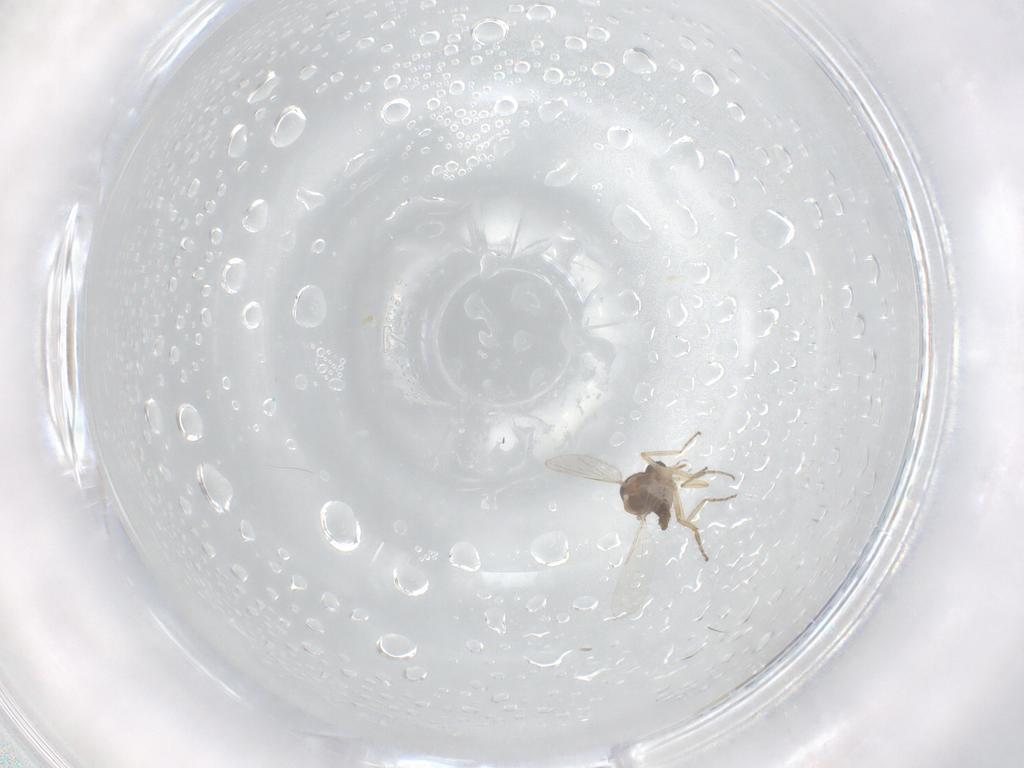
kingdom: Animalia
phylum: Arthropoda
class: Insecta
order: Diptera
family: Ceratopogonidae
